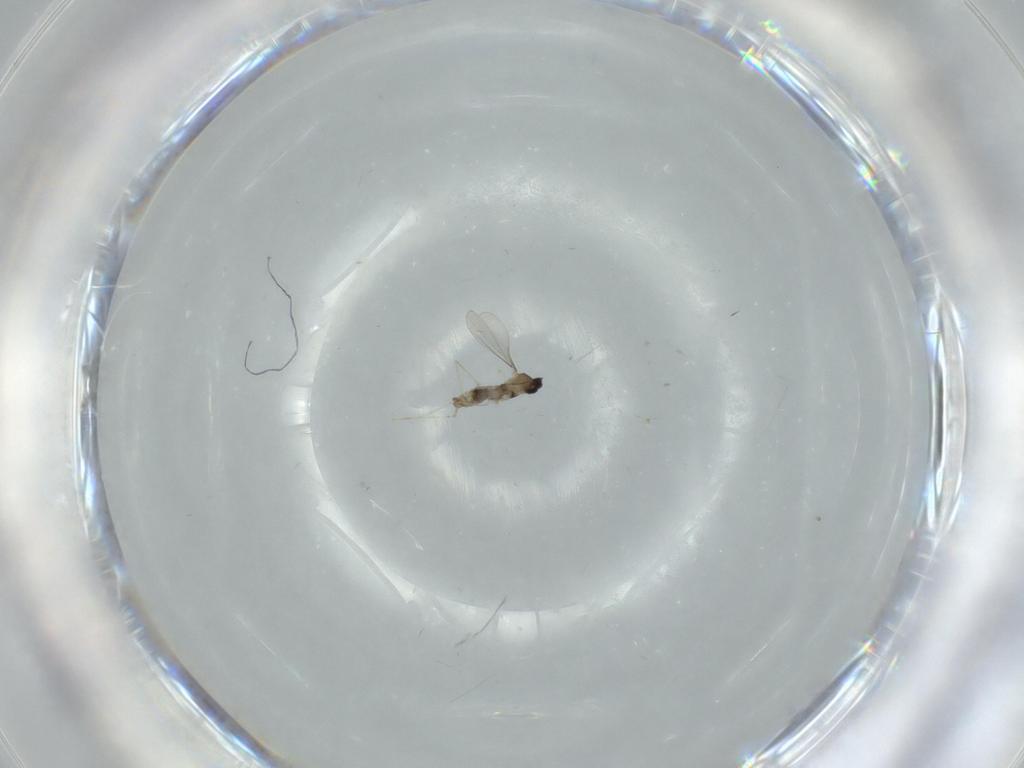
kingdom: Animalia
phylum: Arthropoda
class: Insecta
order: Diptera
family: Cecidomyiidae
